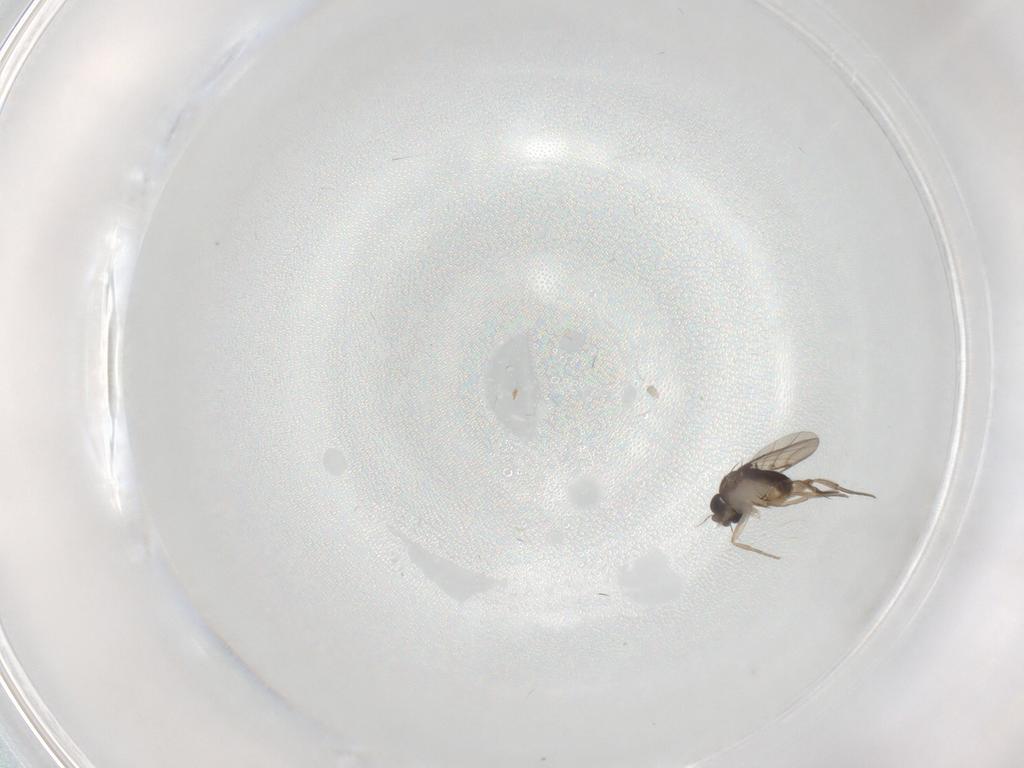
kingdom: Animalia
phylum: Arthropoda
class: Insecta
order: Diptera
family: Phoridae
